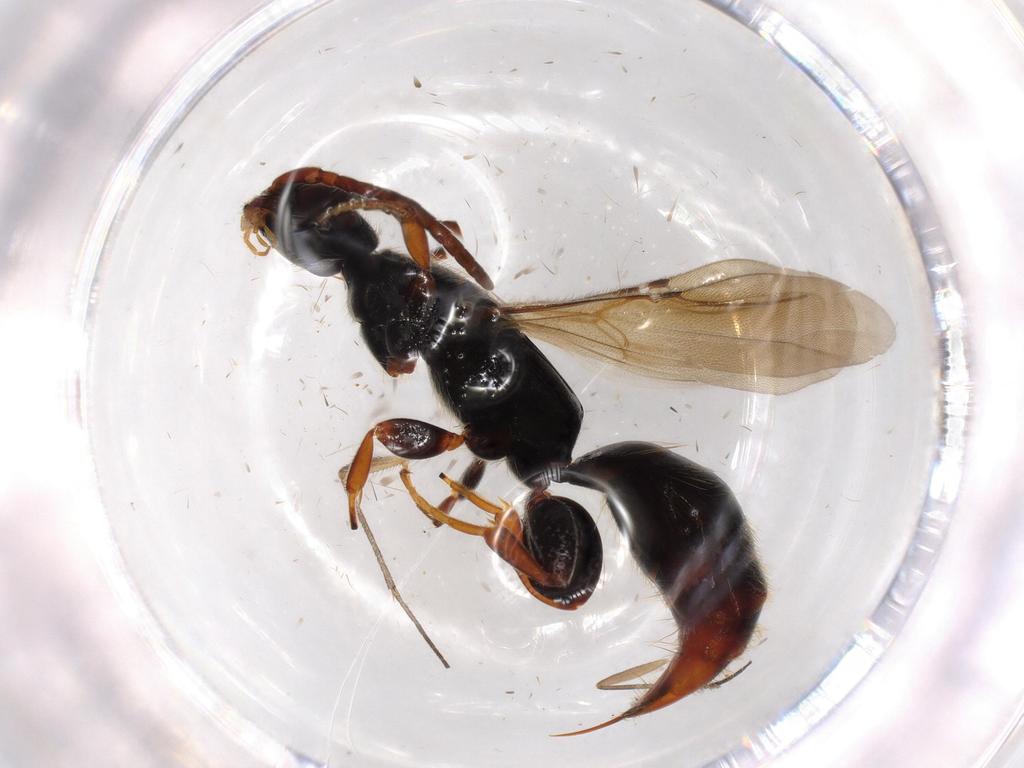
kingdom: Animalia
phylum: Arthropoda
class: Insecta
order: Hymenoptera
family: Bethylidae
